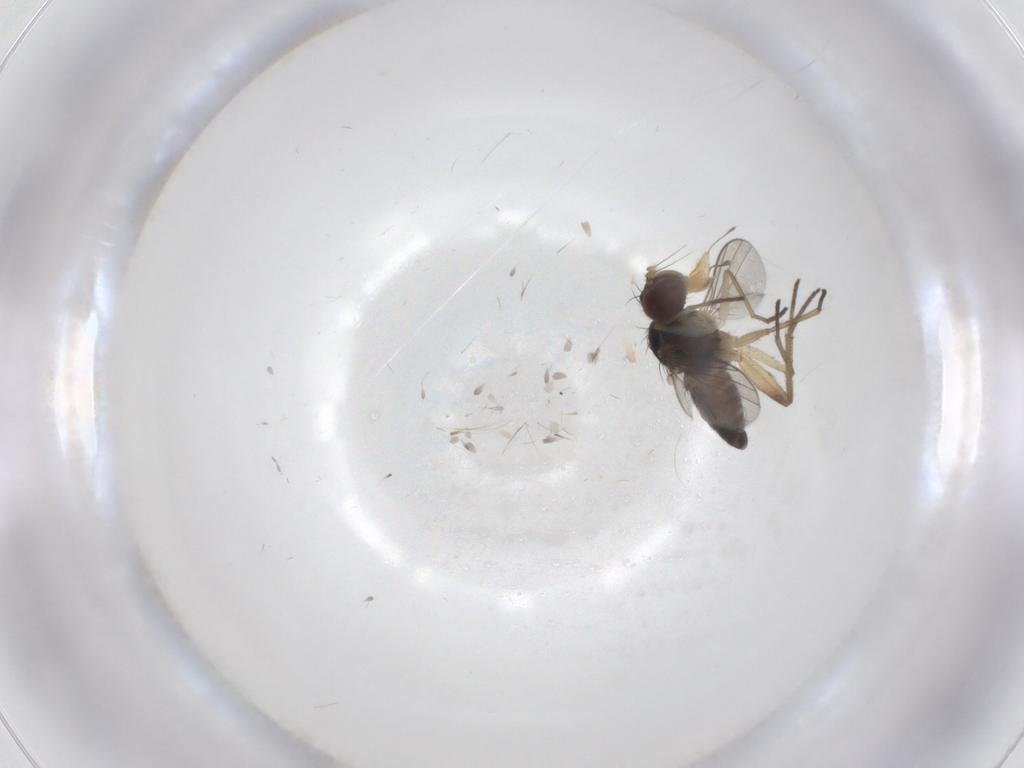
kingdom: Animalia
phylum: Arthropoda
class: Insecta
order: Diptera
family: Dolichopodidae
